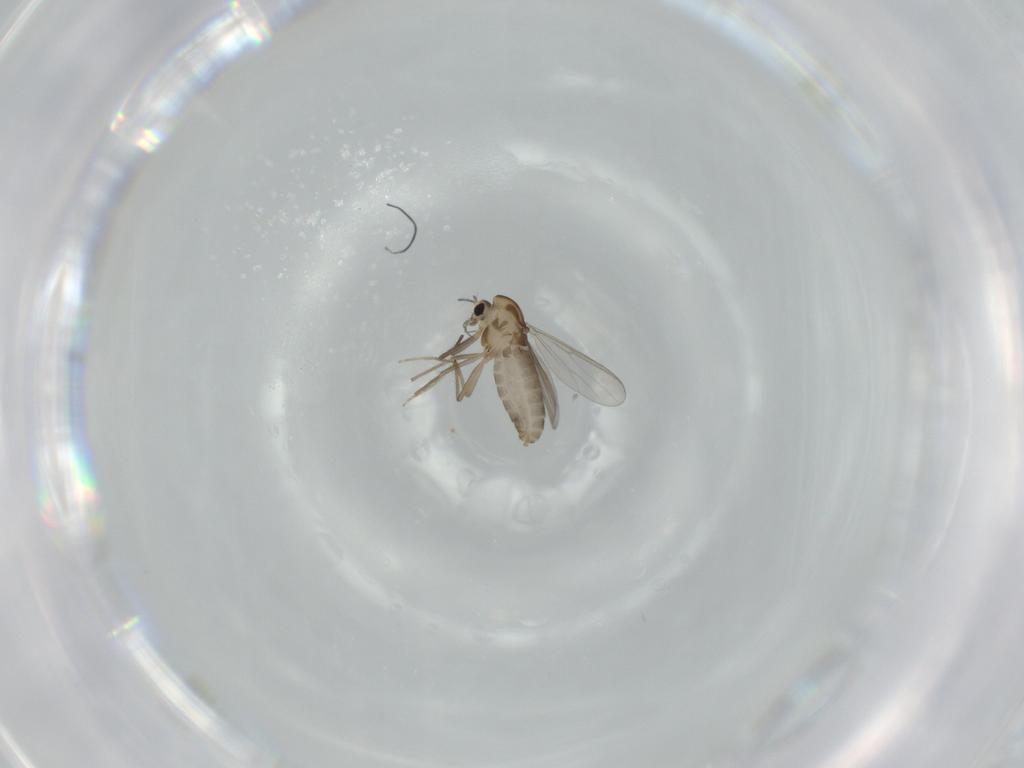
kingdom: Animalia
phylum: Arthropoda
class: Insecta
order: Diptera
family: Chironomidae
